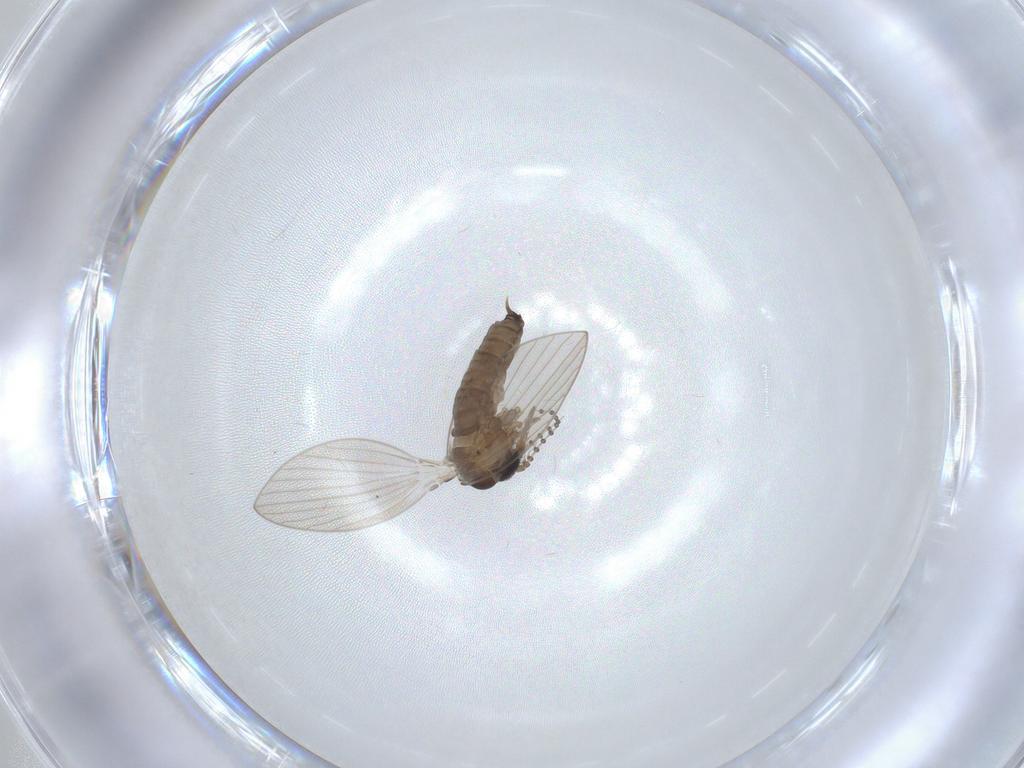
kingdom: Animalia
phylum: Arthropoda
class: Insecta
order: Diptera
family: Psychodidae
